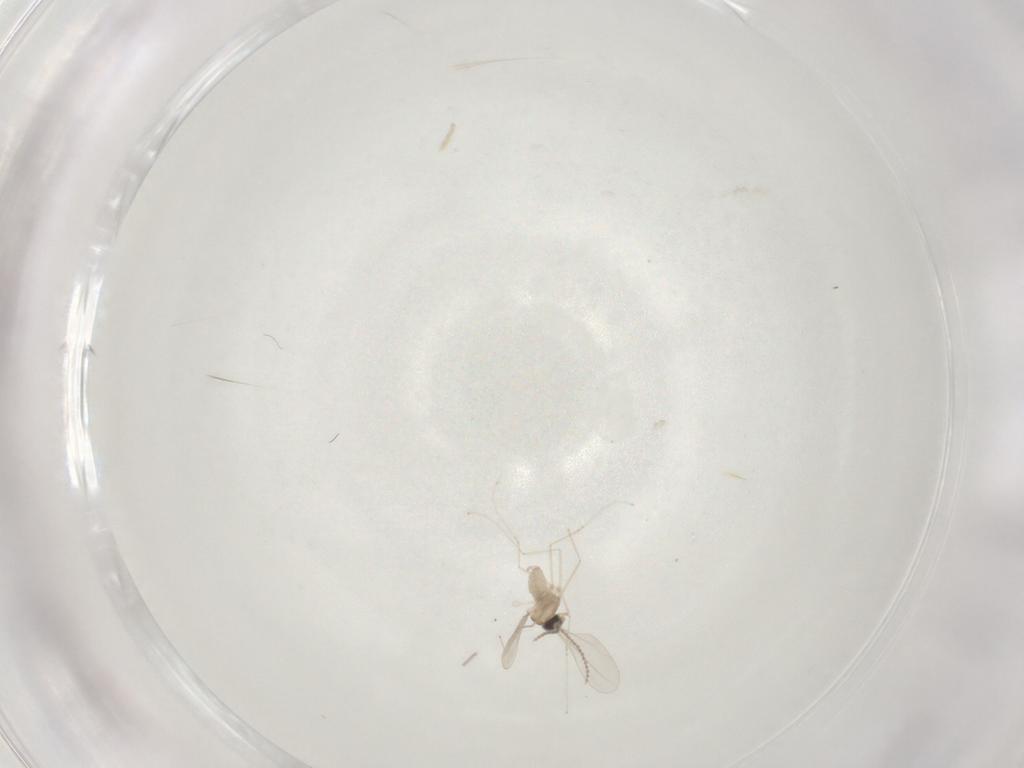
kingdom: Animalia
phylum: Arthropoda
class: Insecta
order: Diptera
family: Cecidomyiidae
